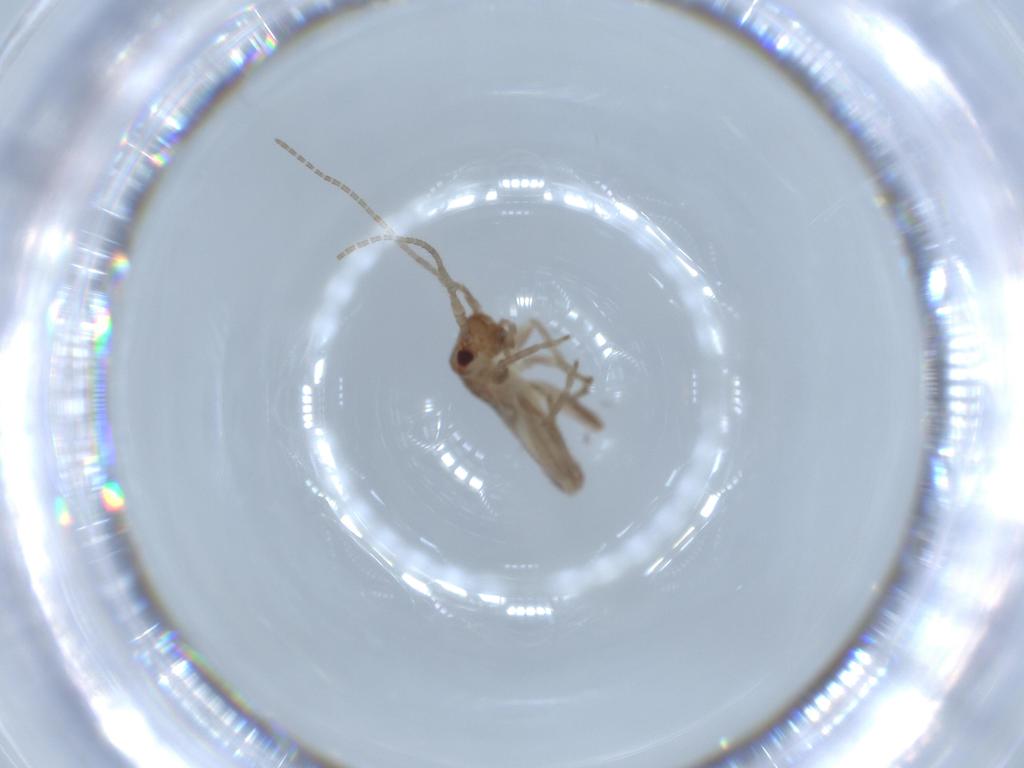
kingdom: Animalia
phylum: Arthropoda
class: Insecta
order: Orthoptera
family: Mogoplistidae
